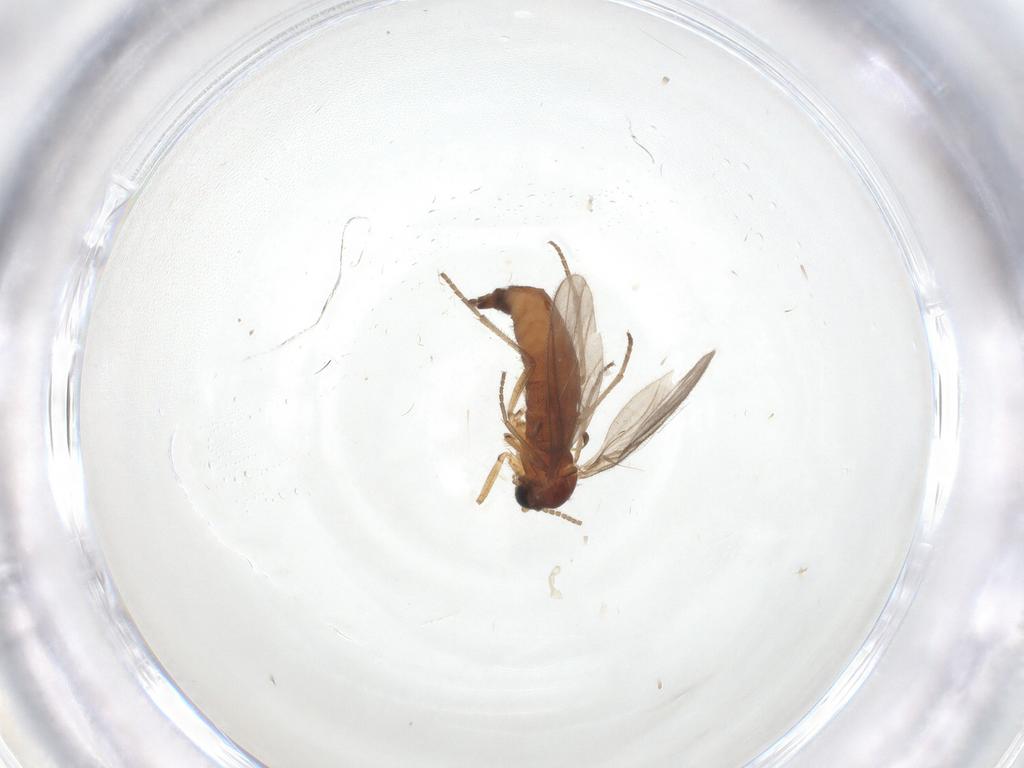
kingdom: Animalia
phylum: Arthropoda
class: Insecta
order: Diptera
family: Cecidomyiidae
